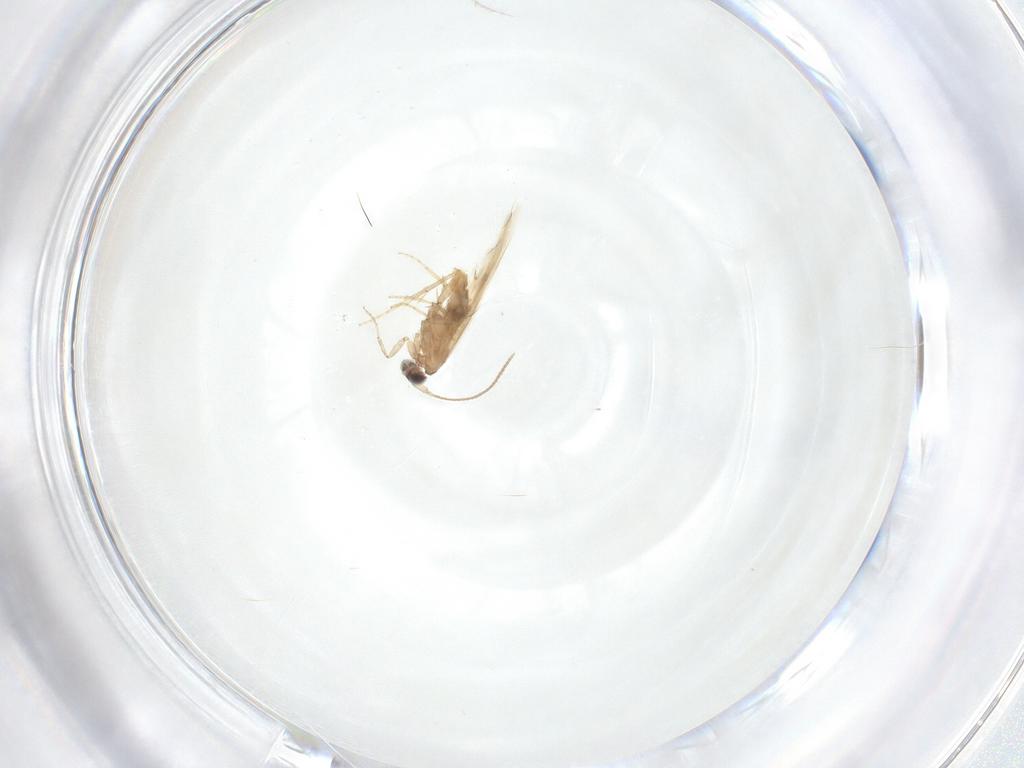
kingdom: Animalia
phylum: Arthropoda
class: Insecta
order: Lepidoptera
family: Nepticulidae
